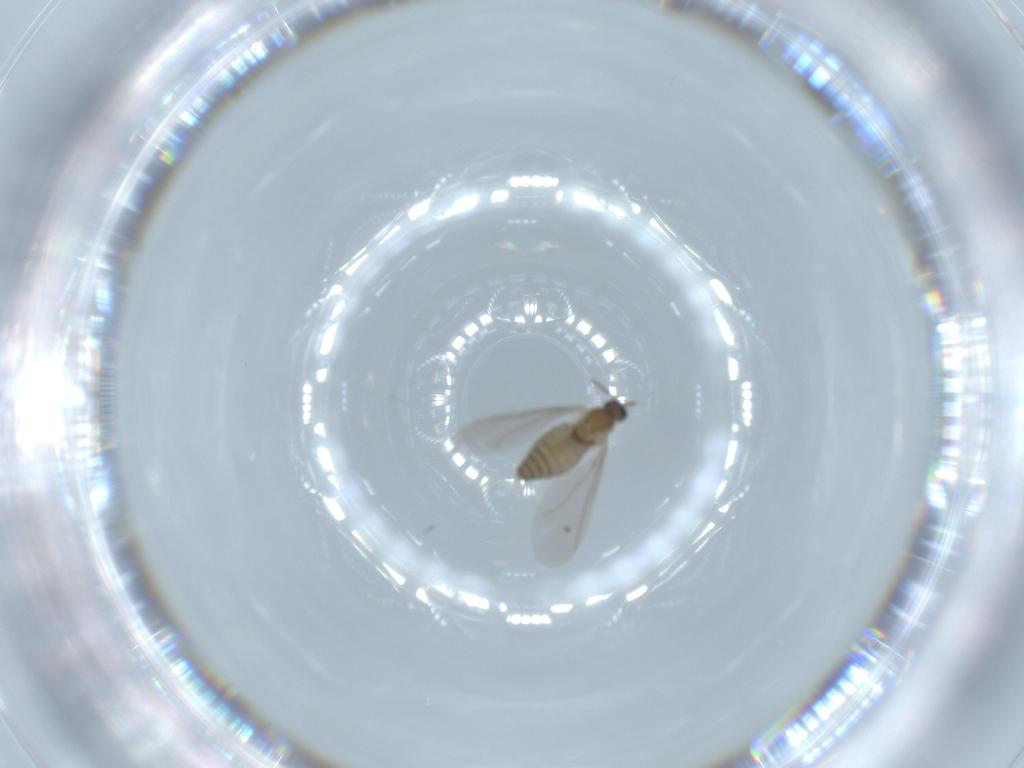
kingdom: Animalia
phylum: Arthropoda
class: Insecta
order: Diptera
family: Cecidomyiidae
